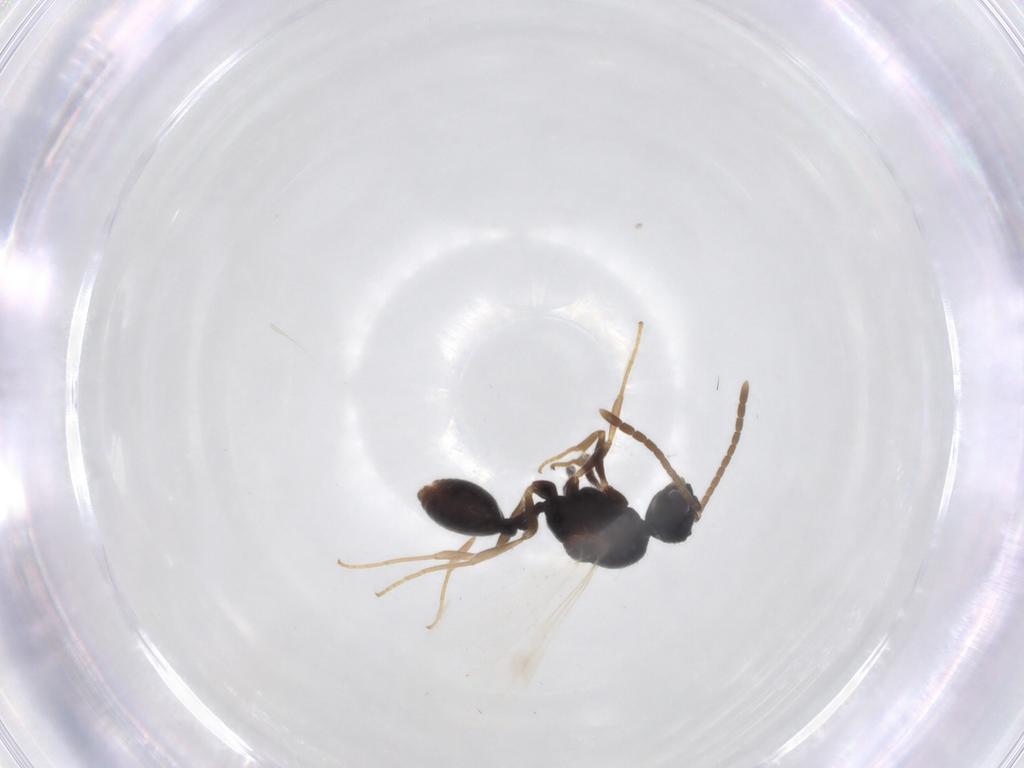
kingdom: Animalia
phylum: Arthropoda
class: Insecta
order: Hymenoptera
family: Formicidae
